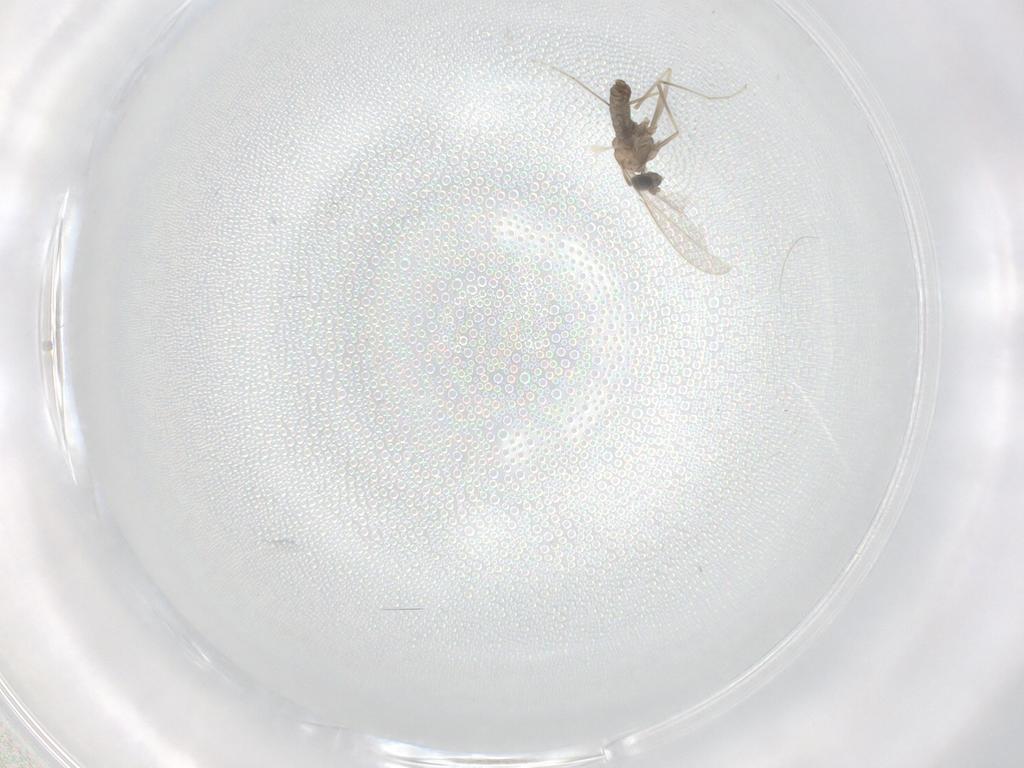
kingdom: Animalia
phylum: Arthropoda
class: Insecta
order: Diptera
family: Cecidomyiidae
